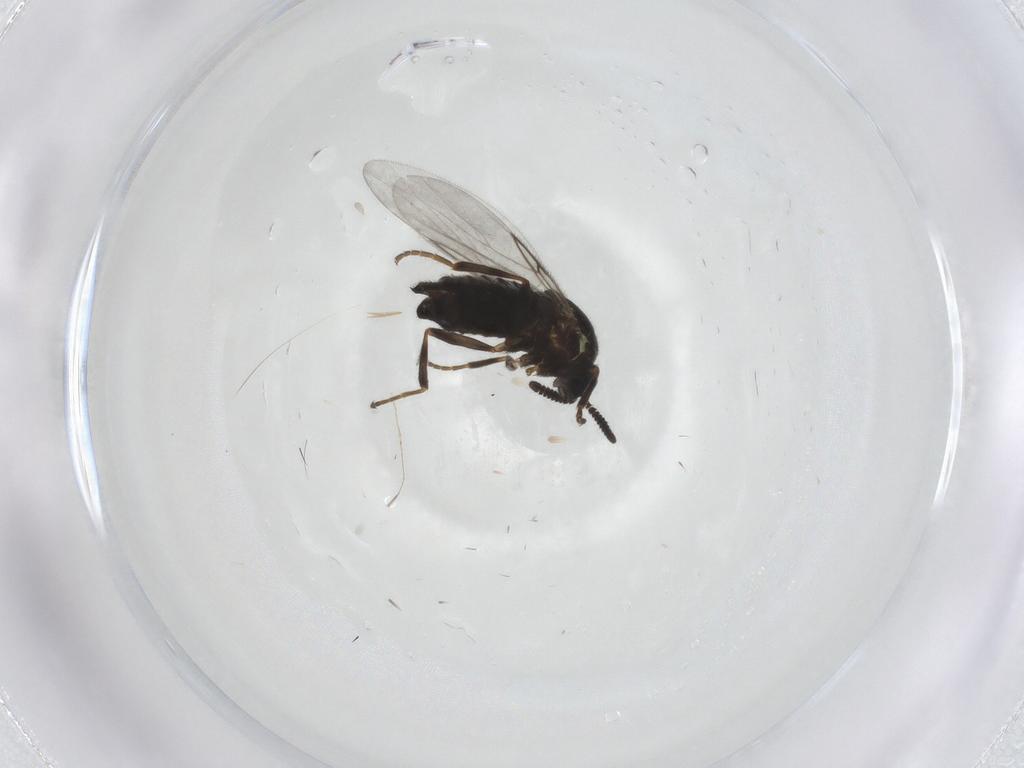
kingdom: Animalia
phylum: Arthropoda
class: Insecta
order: Diptera
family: Scatopsidae
